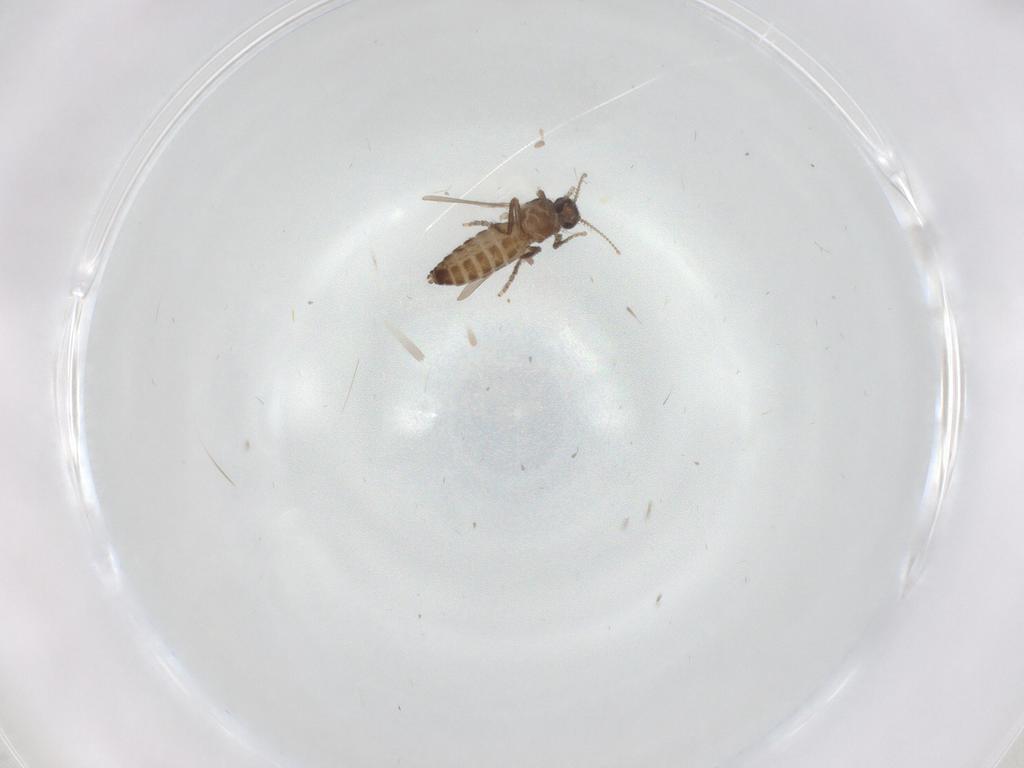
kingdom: Animalia
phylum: Arthropoda
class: Insecta
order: Diptera
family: Ceratopogonidae
